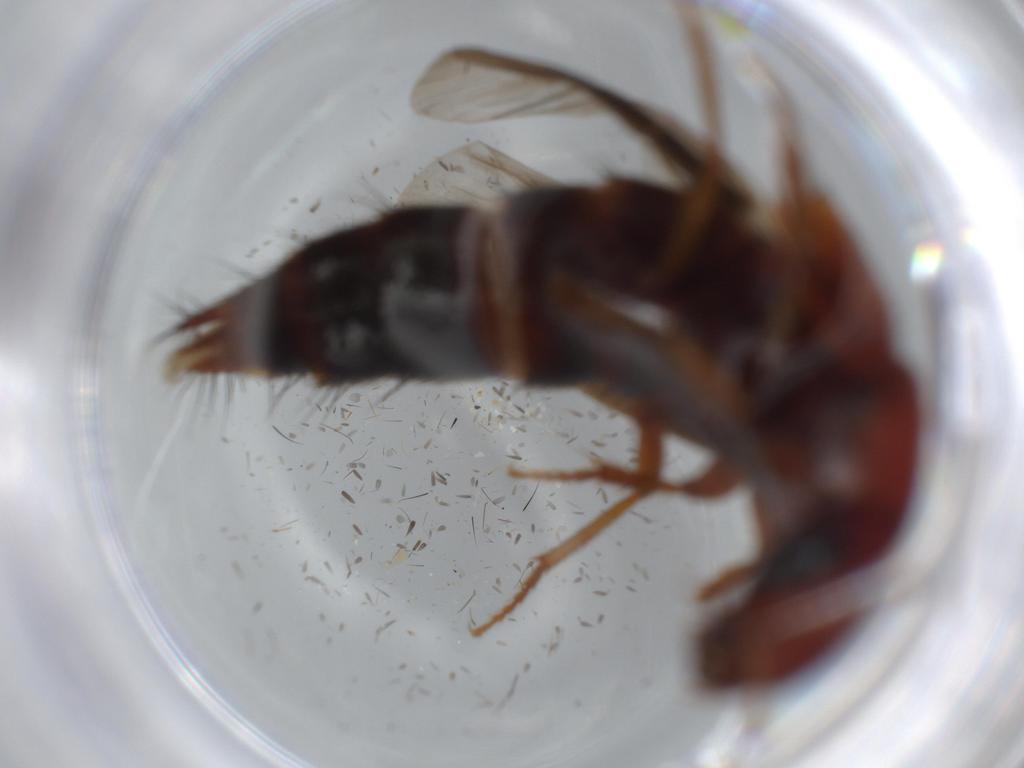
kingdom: Animalia
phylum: Arthropoda
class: Insecta
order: Coleoptera
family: Staphylinidae
